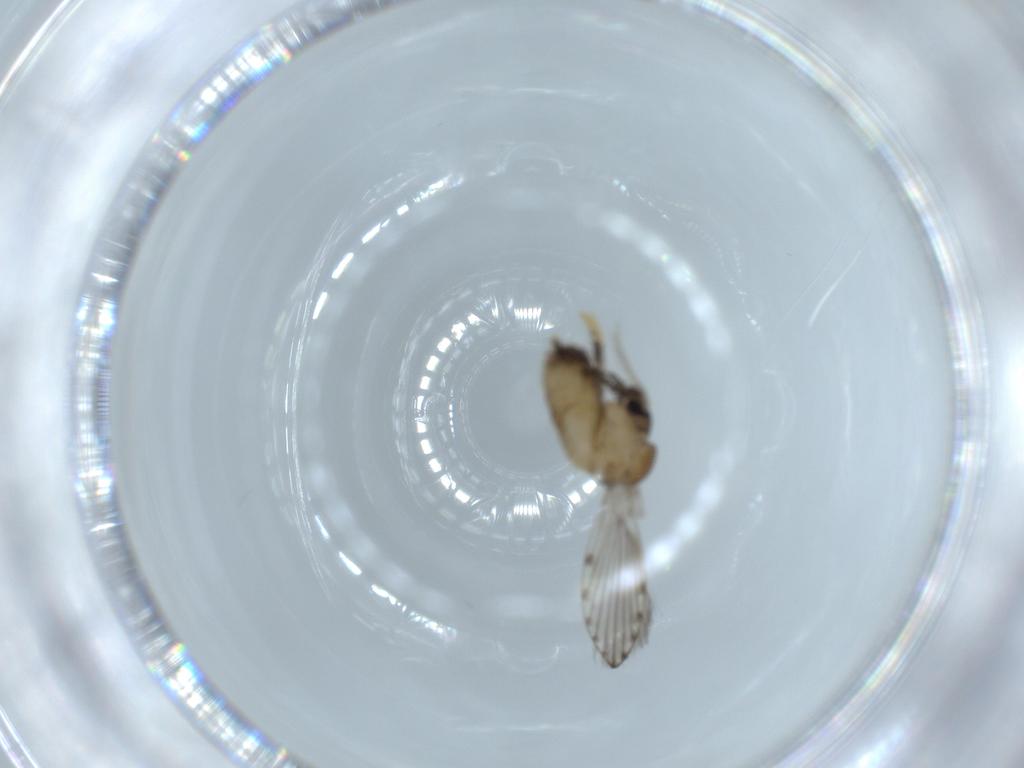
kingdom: Animalia
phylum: Arthropoda
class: Insecta
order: Diptera
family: Psychodidae
